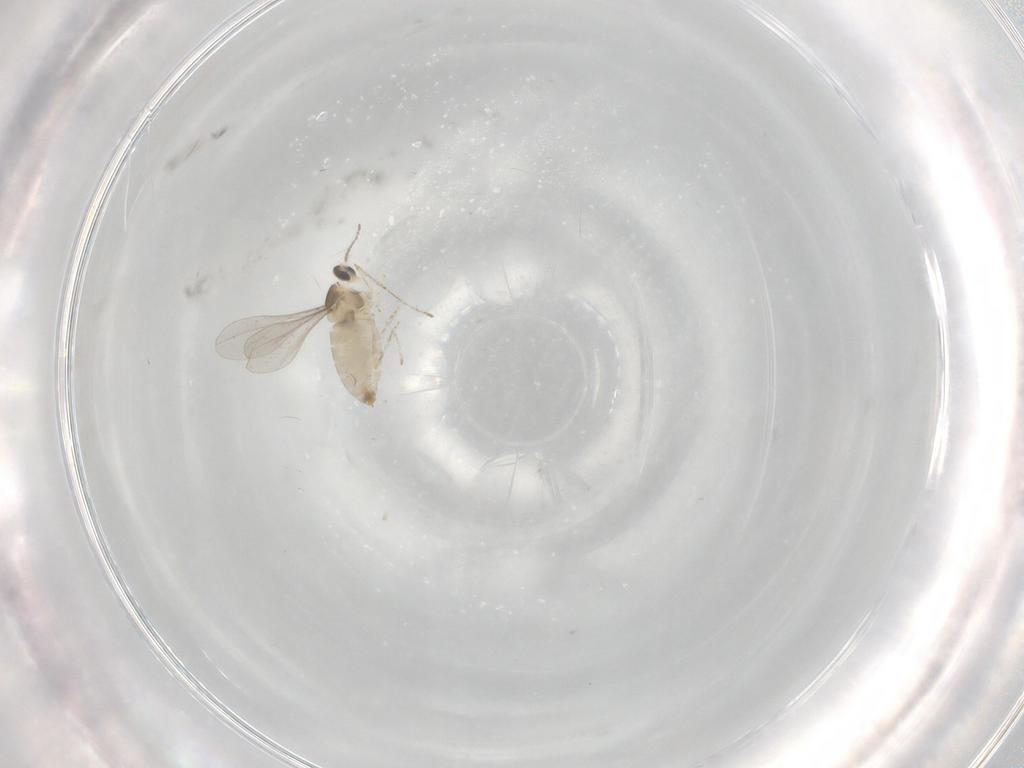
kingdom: Animalia
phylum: Arthropoda
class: Insecta
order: Diptera
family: Cecidomyiidae
